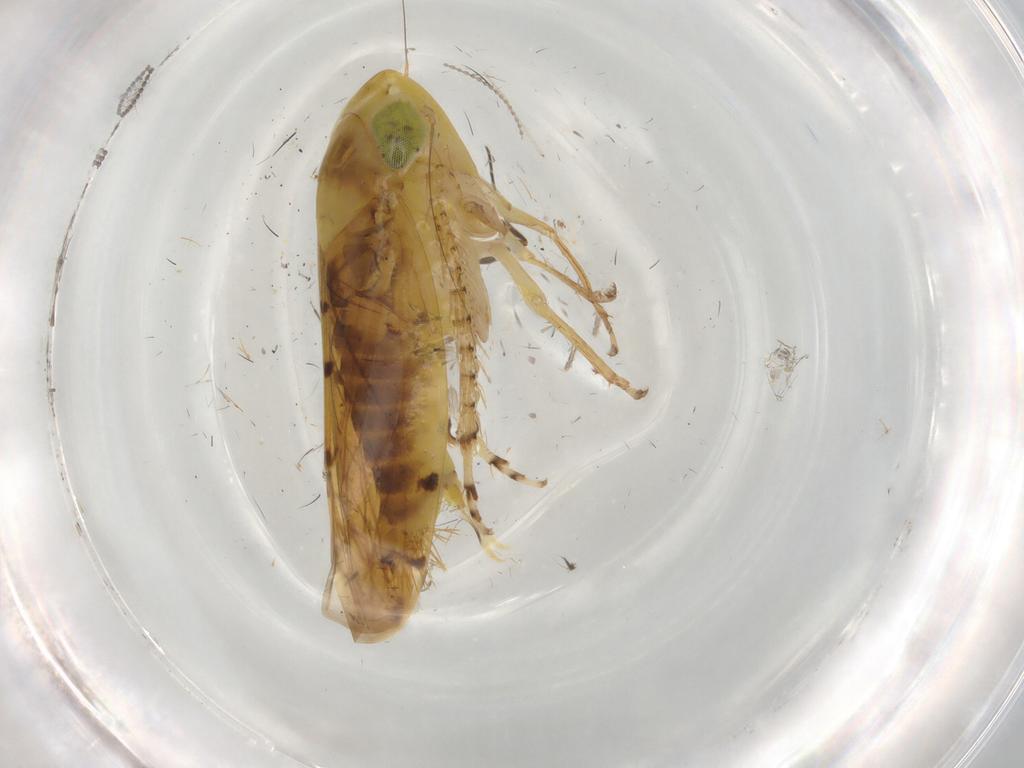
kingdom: Animalia
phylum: Arthropoda
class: Insecta
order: Hemiptera
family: Cicadellidae
